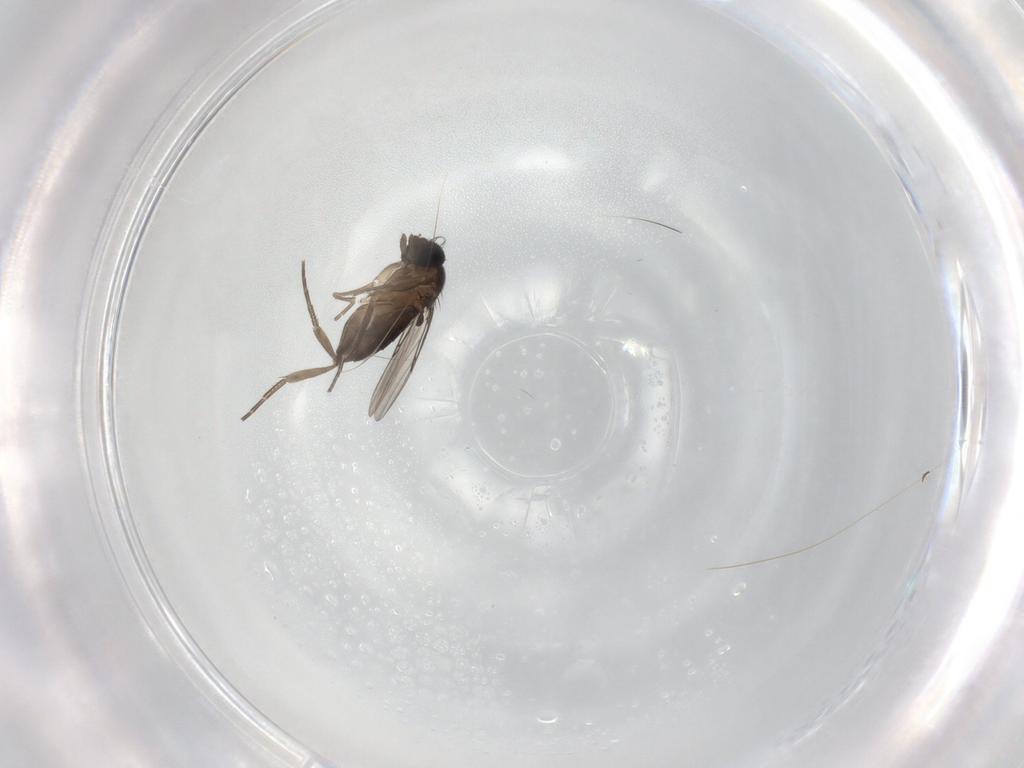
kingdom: Animalia
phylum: Arthropoda
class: Insecta
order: Diptera
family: Phoridae
